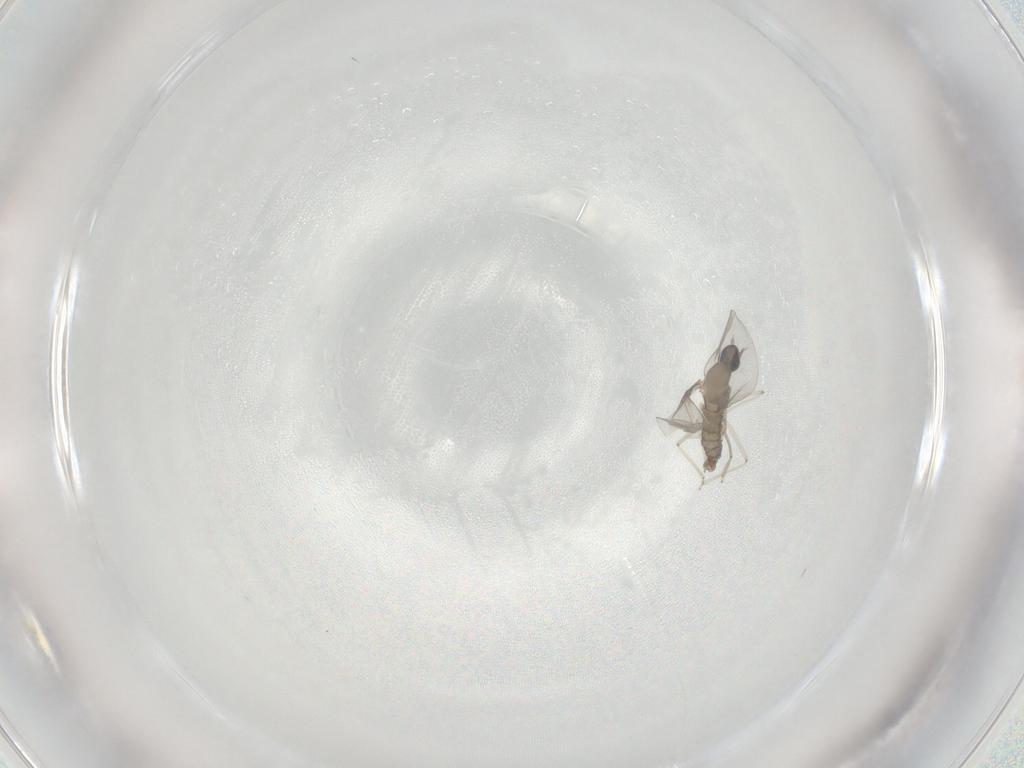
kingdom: Animalia
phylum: Arthropoda
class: Insecta
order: Diptera
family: Cecidomyiidae
